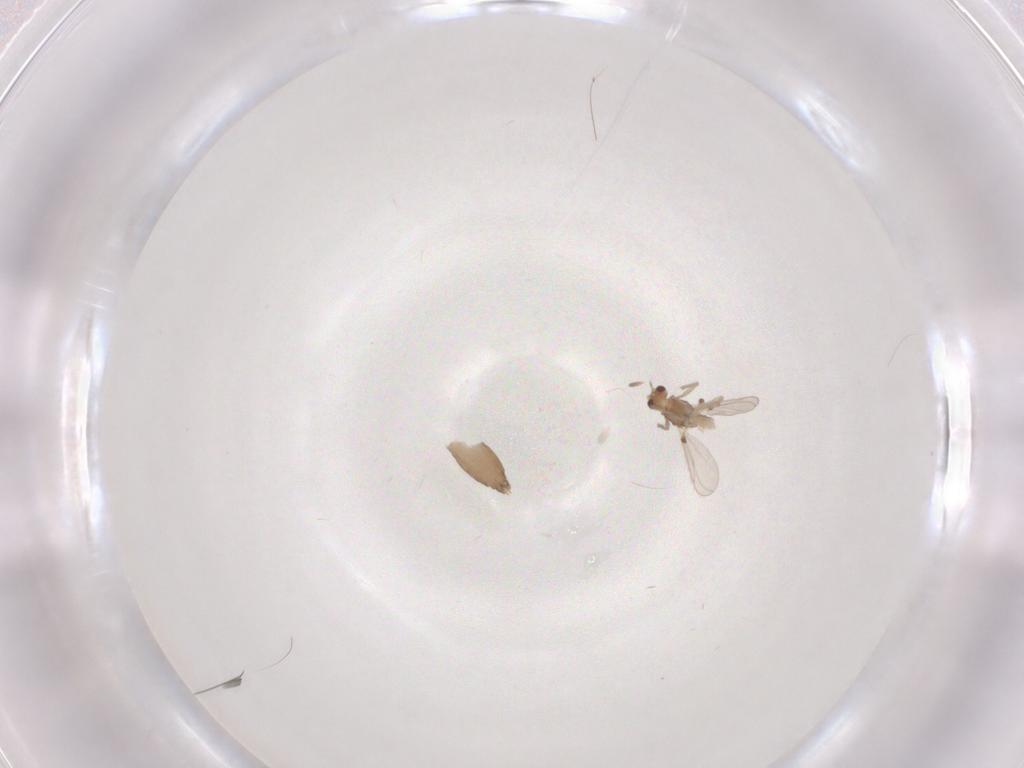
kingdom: Animalia
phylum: Arthropoda
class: Insecta
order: Diptera
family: Chironomidae
